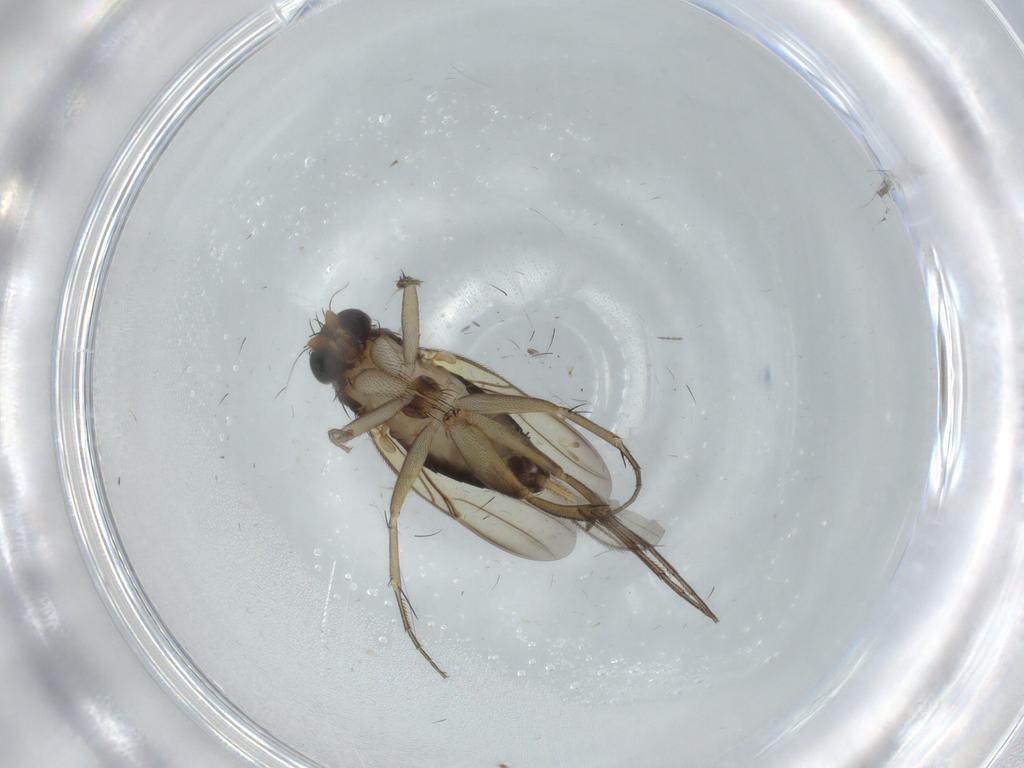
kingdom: Animalia
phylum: Arthropoda
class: Insecta
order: Diptera
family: Phoridae
